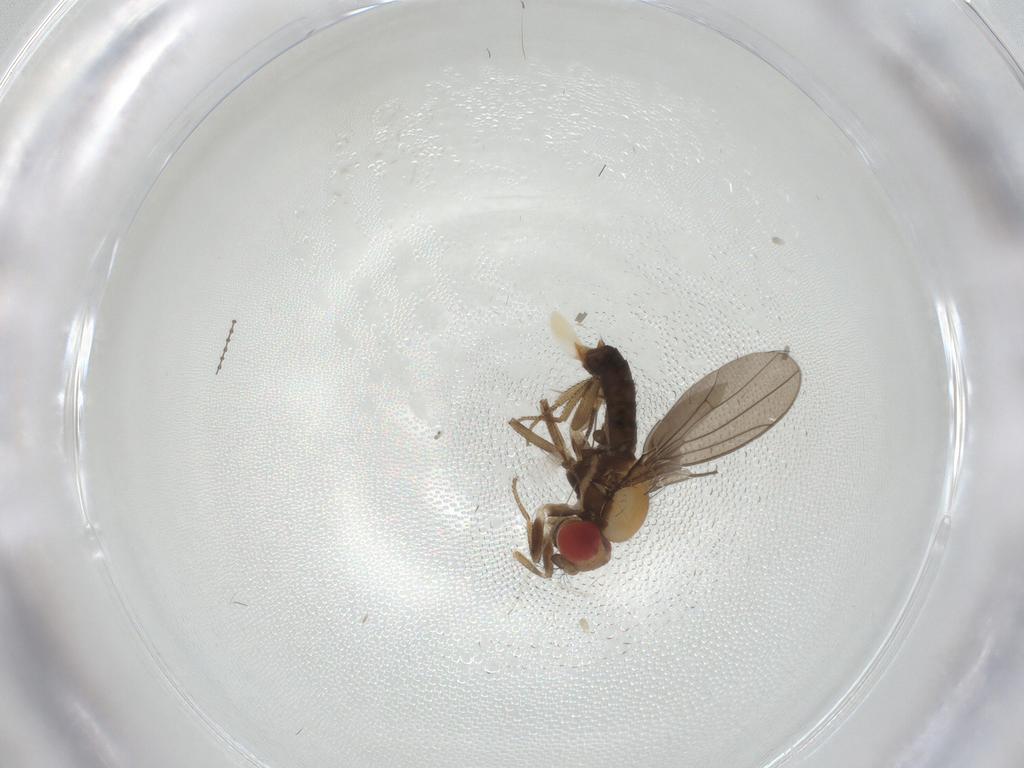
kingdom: Animalia
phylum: Arthropoda
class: Insecta
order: Diptera
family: Drosophilidae
